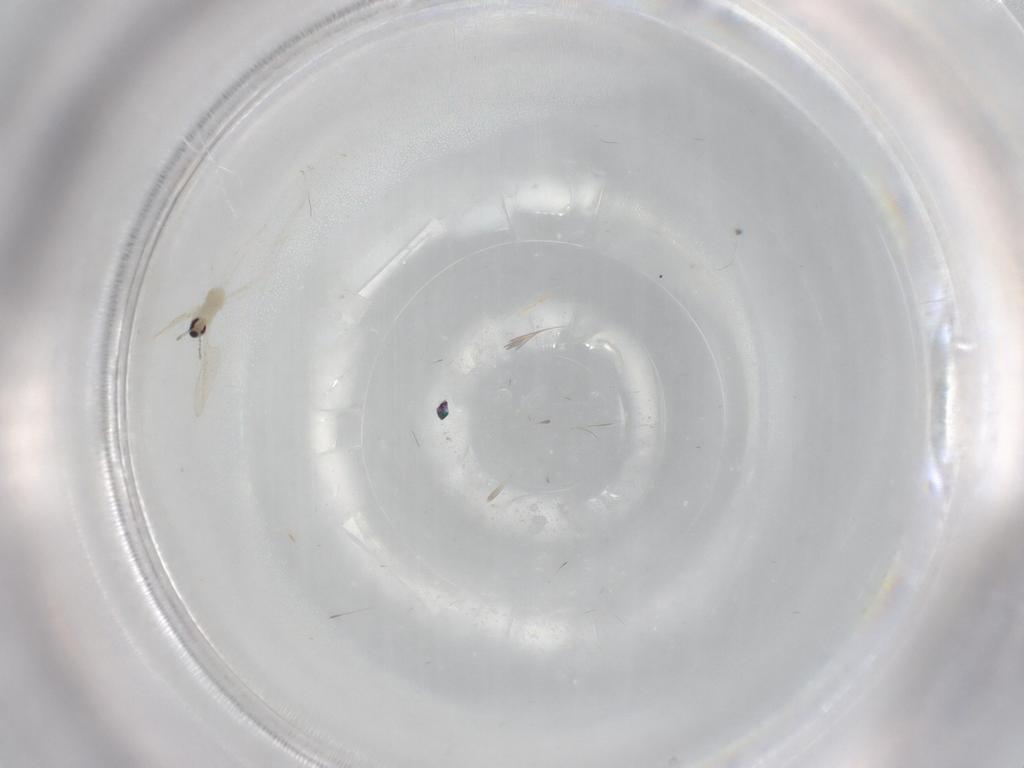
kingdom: Animalia
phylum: Arthropoda
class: Insecta
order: Diptera
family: Cecidomyiidae
